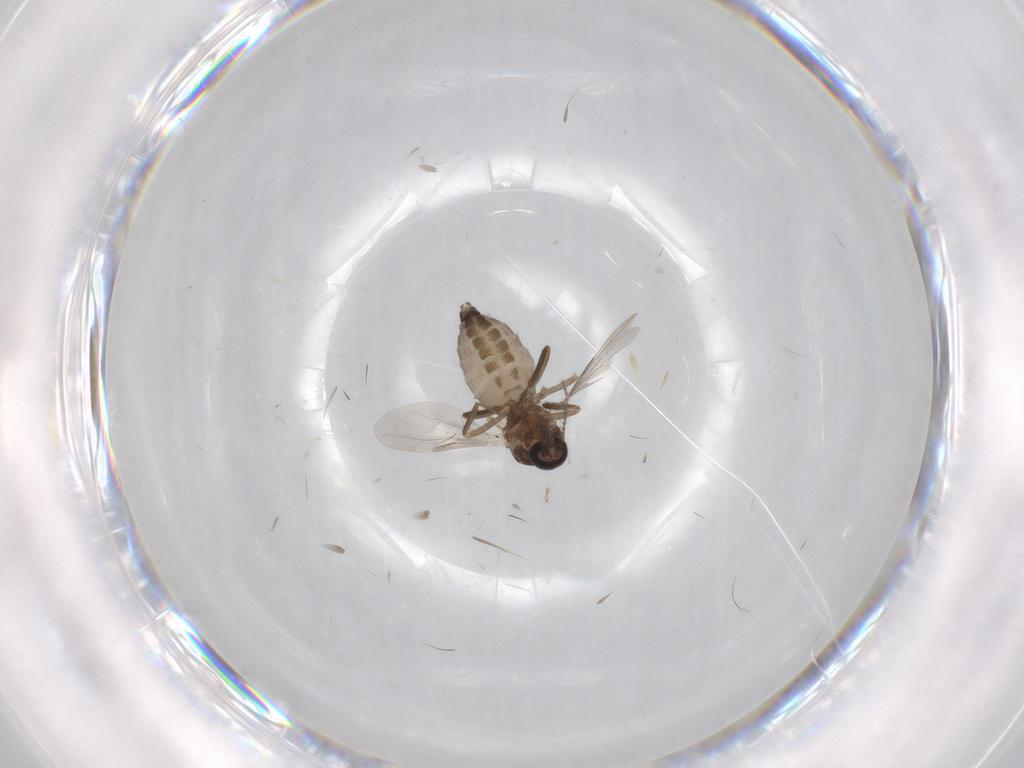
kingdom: Animalia
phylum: Arthropoda
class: Insecta
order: Diptera
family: Ceratopogonidae
